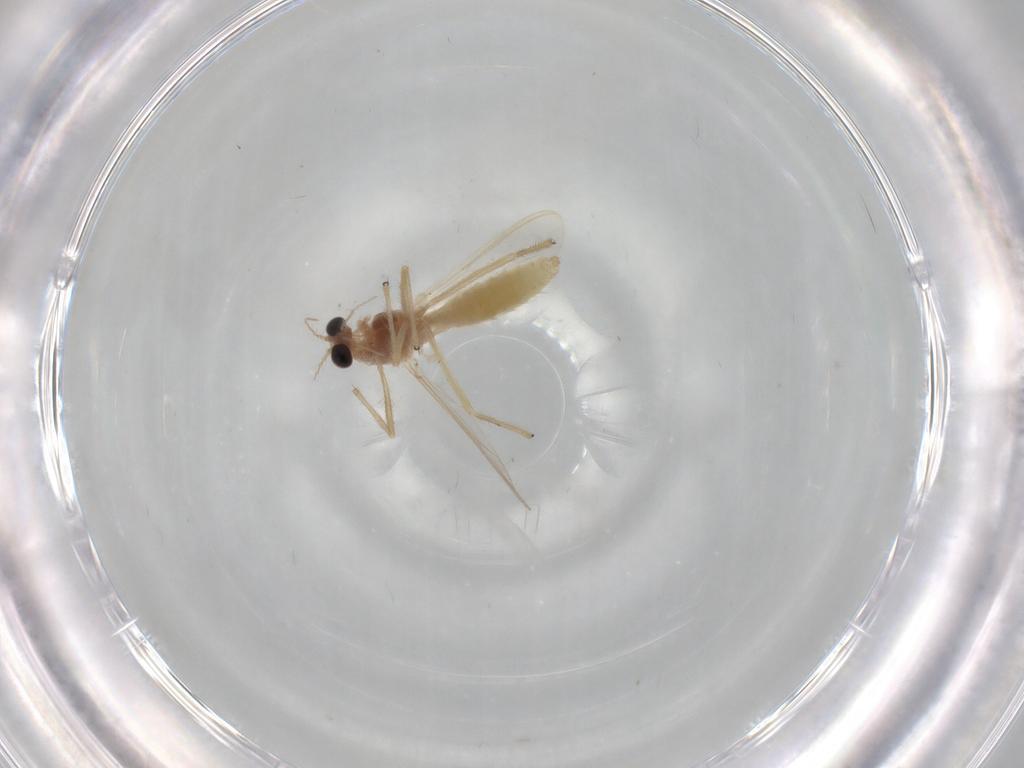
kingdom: Animalia
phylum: Arthropoda
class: Insecta
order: Diptera
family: Chironomidae
